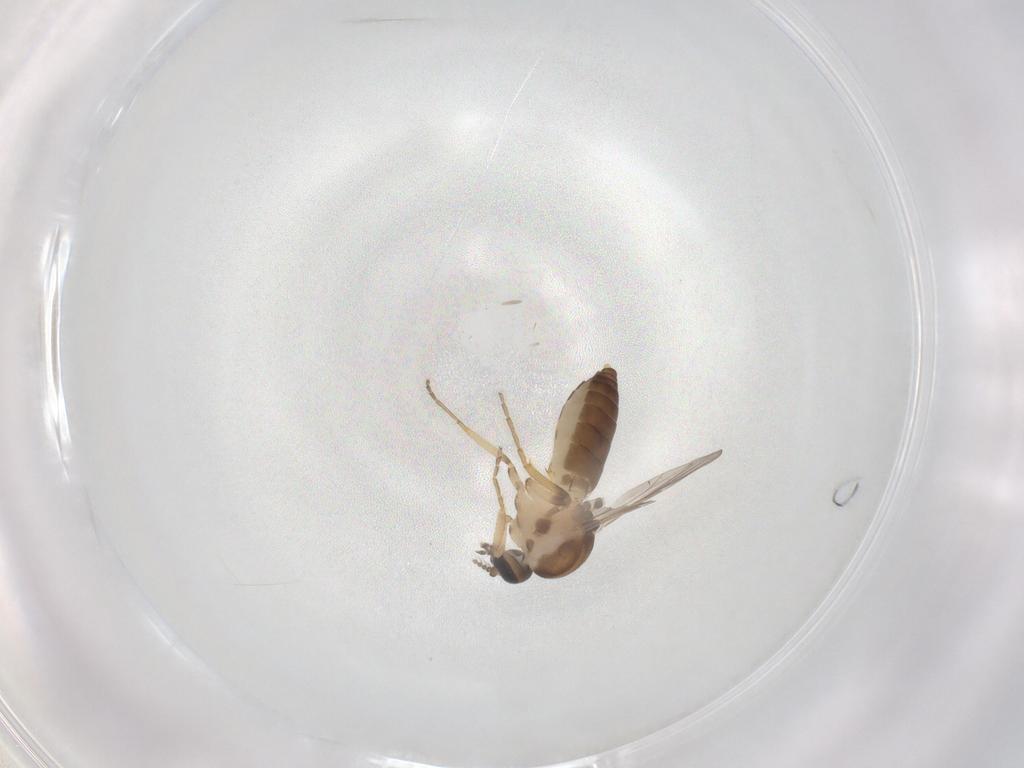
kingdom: Animalia
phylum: Arthropoda
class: Insecta
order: Diptera
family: Ceratopogonidae
